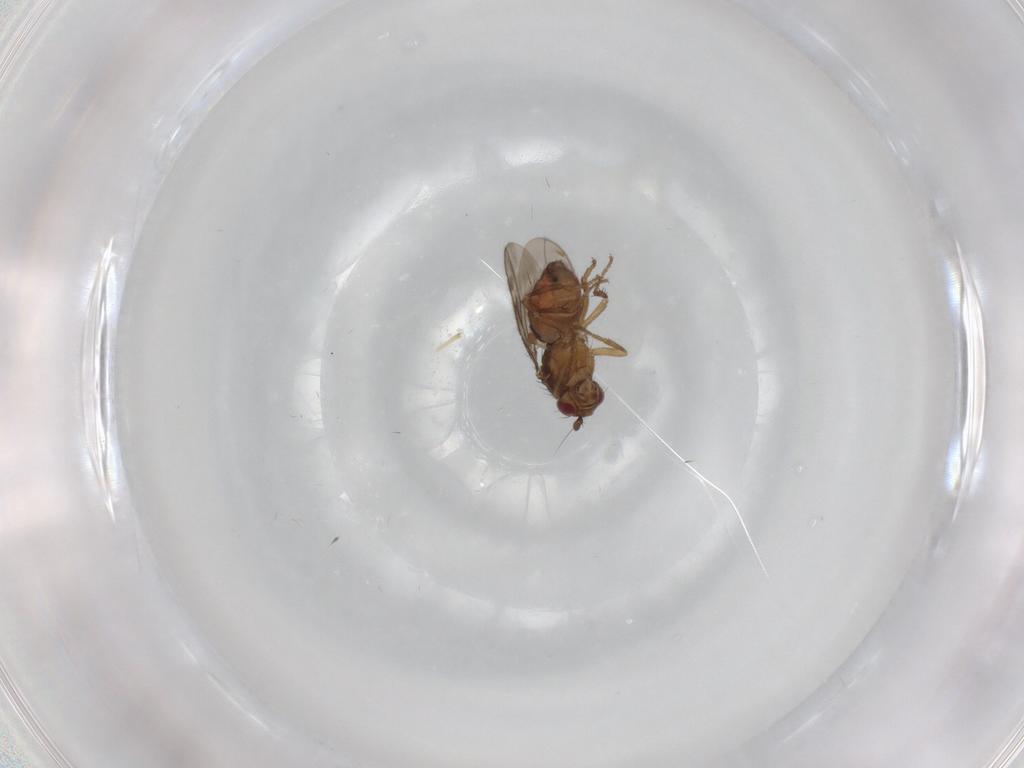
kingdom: Animalia
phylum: Arthropoda
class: Insecta
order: Diptera
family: Sphaeroceridae
